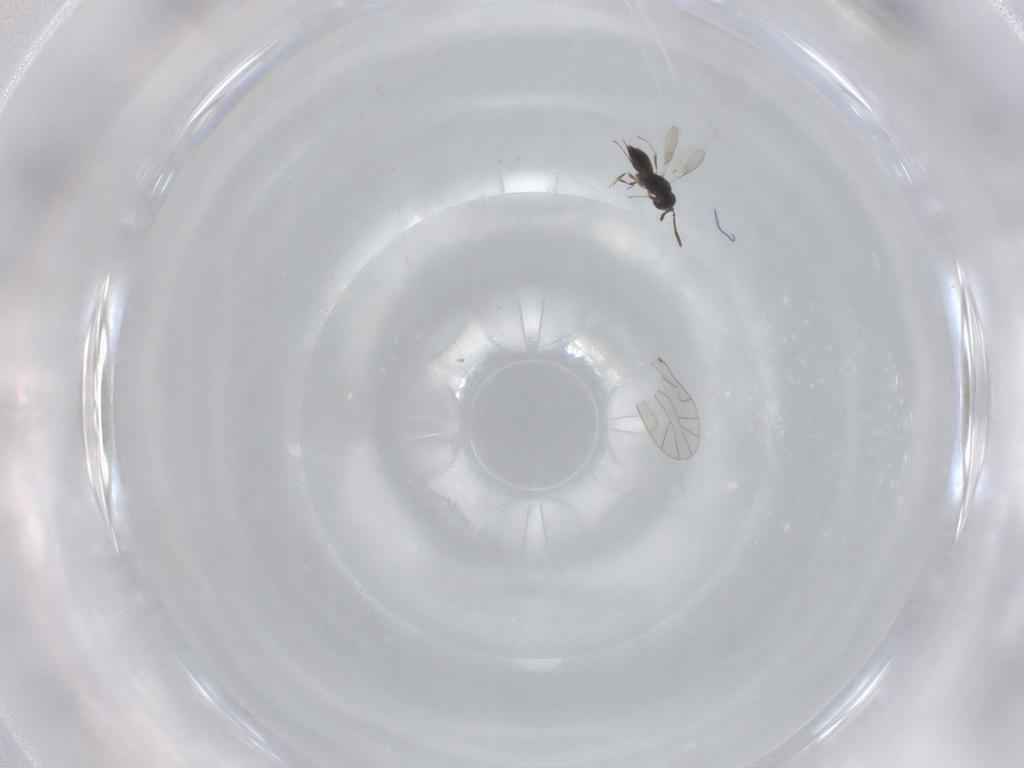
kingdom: Animalia
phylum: Arthropoda
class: Insecta
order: Hymenoptera
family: Scelionidae
